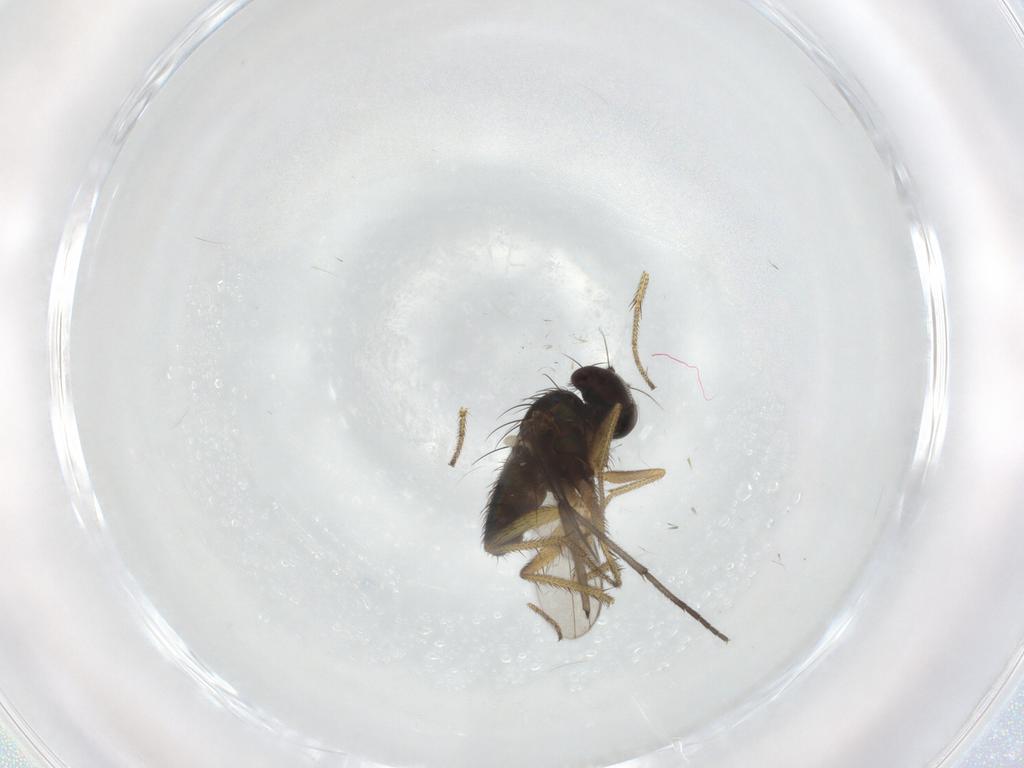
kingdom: Animalia
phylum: Arthropoda
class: Insecta
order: Diptera
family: Dolichopodidae
